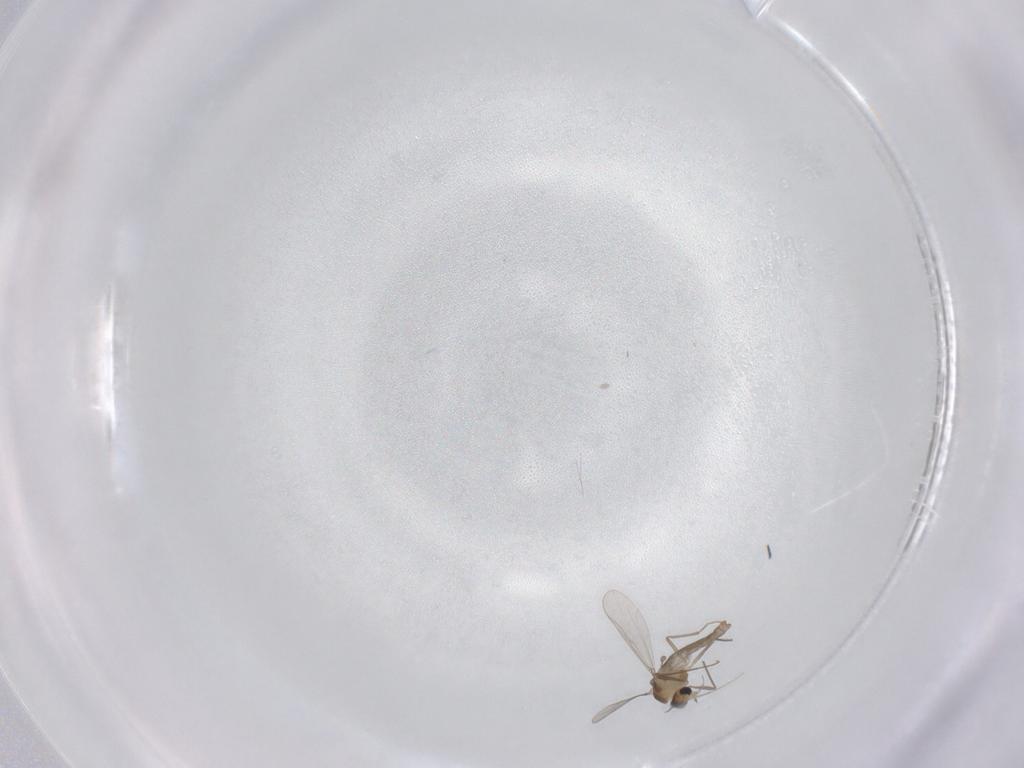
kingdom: Animalia
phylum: Arthropoda
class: Insecta
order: Diptera
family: Chironomidae
